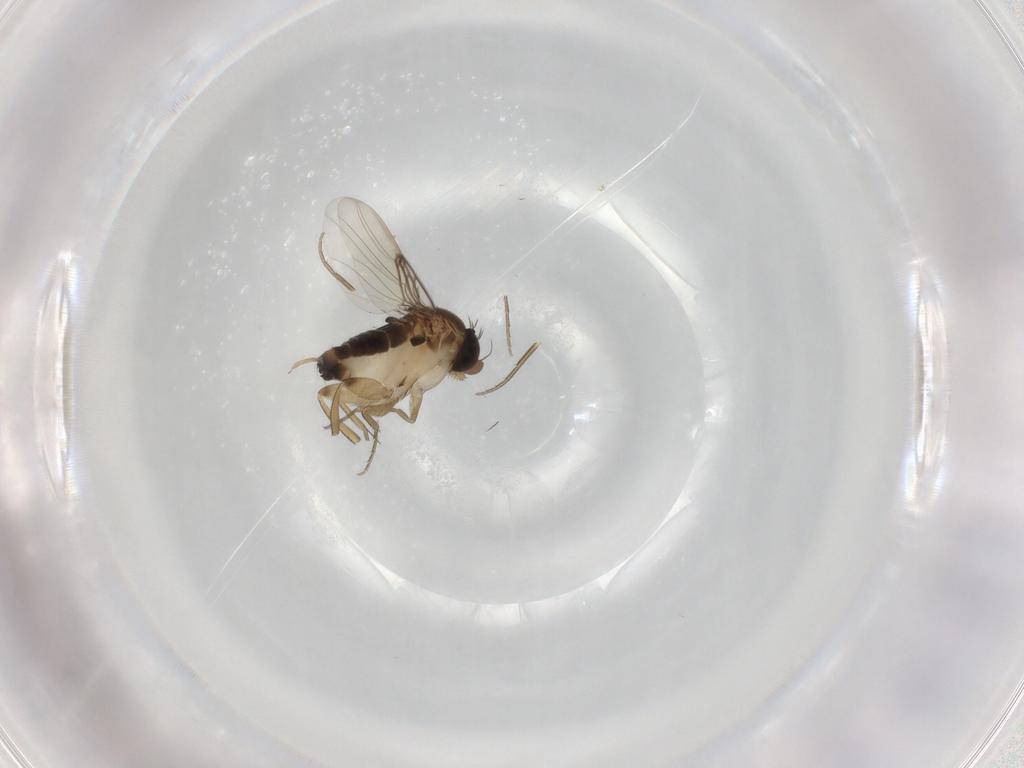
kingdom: Animalia
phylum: Arthropoda
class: Insecta
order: Diptera
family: Phoridae
